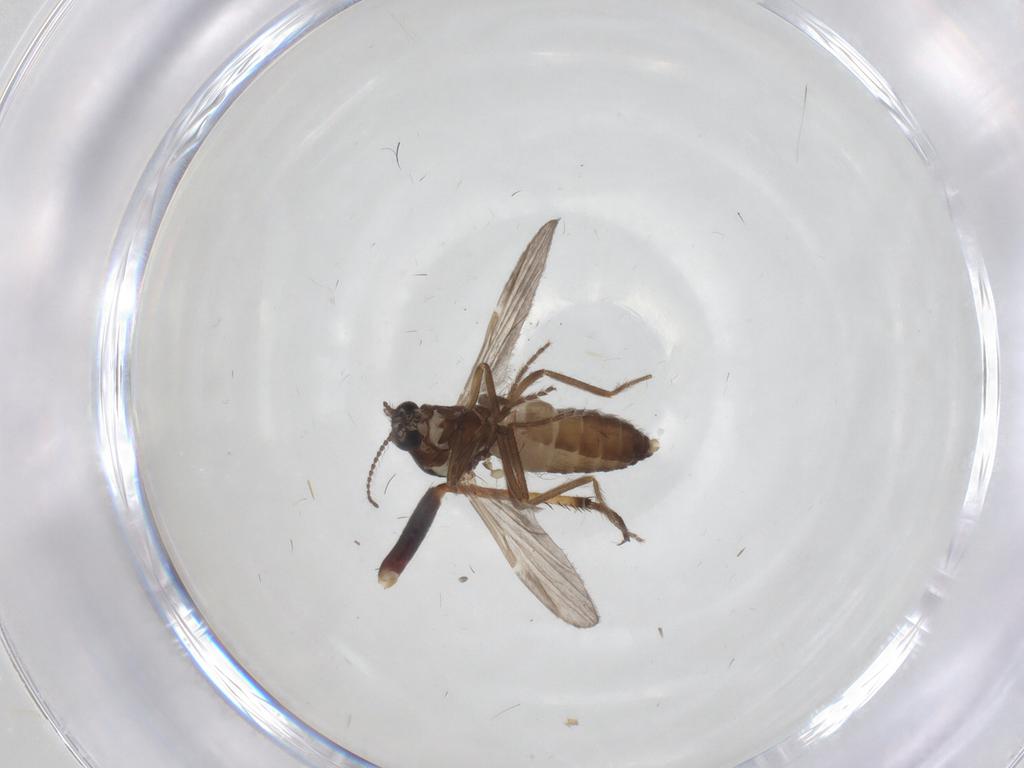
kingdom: Animalia
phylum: Arthropoda
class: Insecta
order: Diptera
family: Ceratopogonidae
